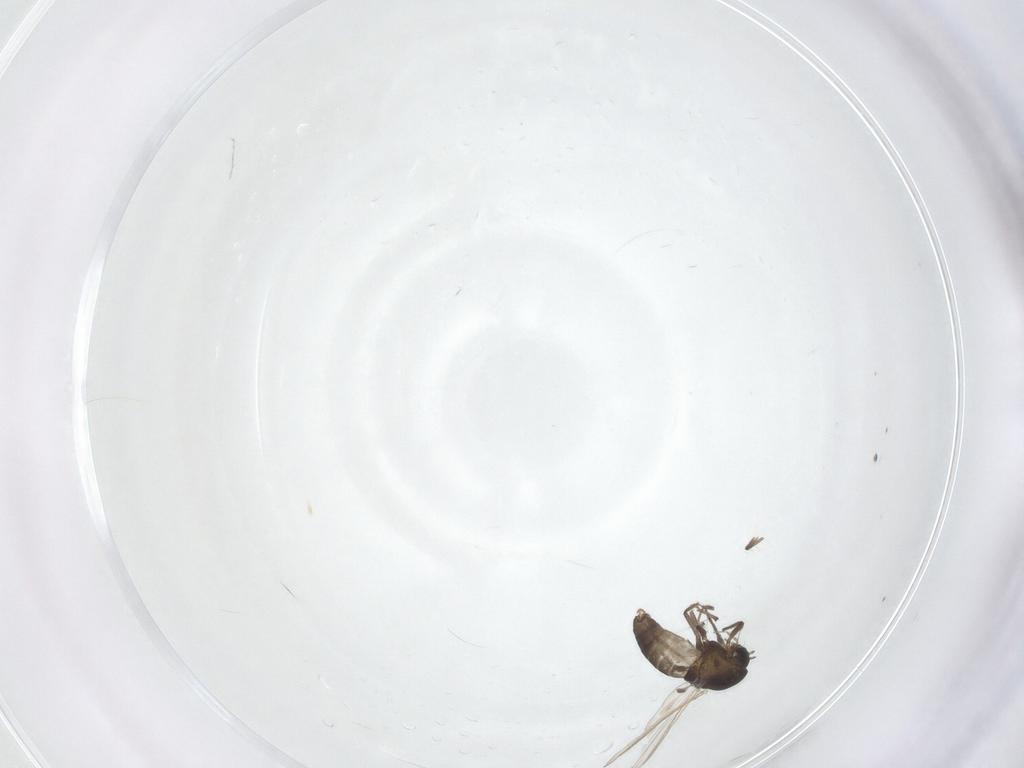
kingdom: Animalia
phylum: Arthropoda
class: Insecta
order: Diptera
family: Chironomidae
